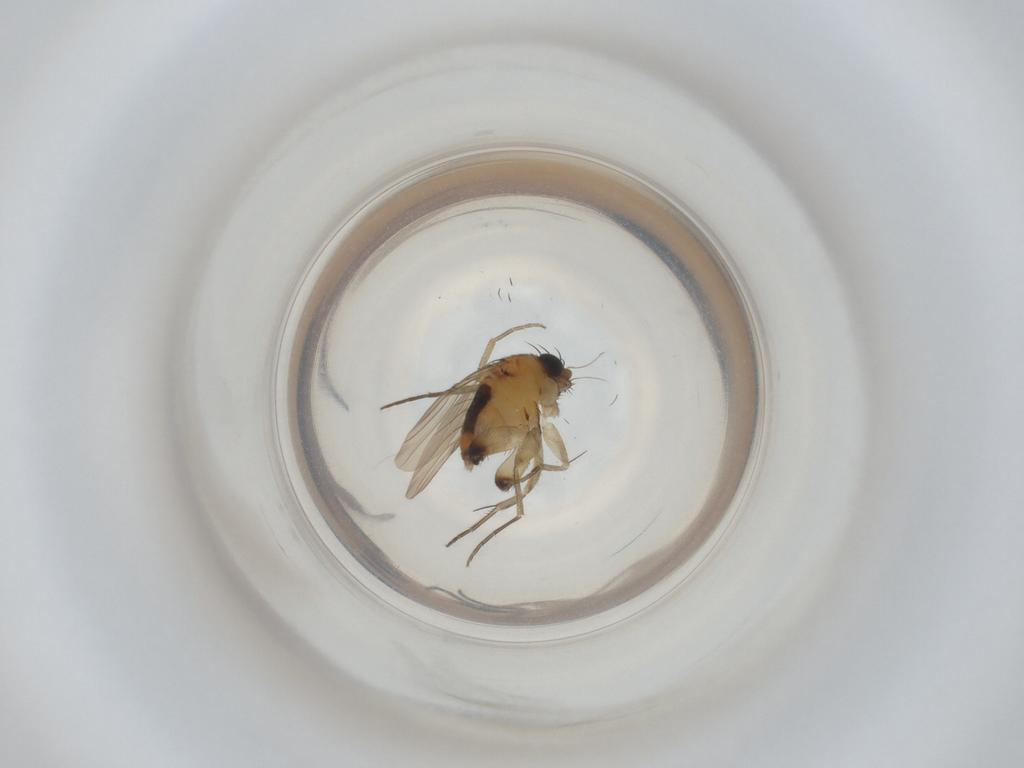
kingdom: Animalia
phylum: Arthropoda
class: Insecta
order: Diptera
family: Phoridae
